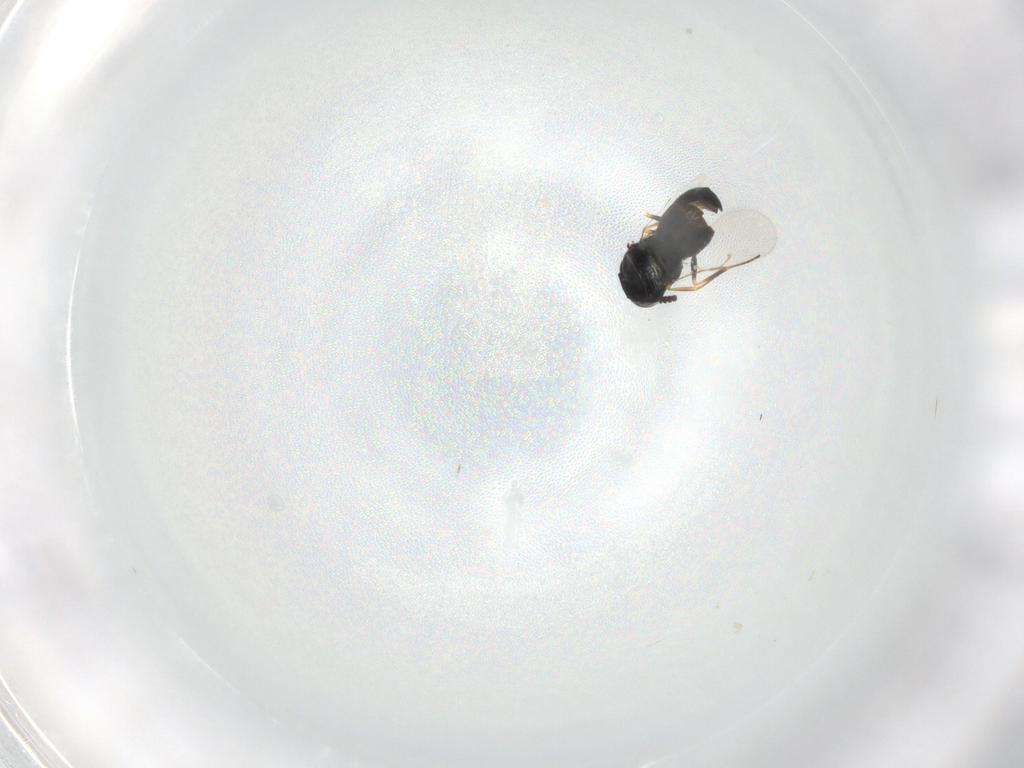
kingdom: Animalia
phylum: Arthropoda
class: Insecta
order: Hymenoptera
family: Scelionidae
